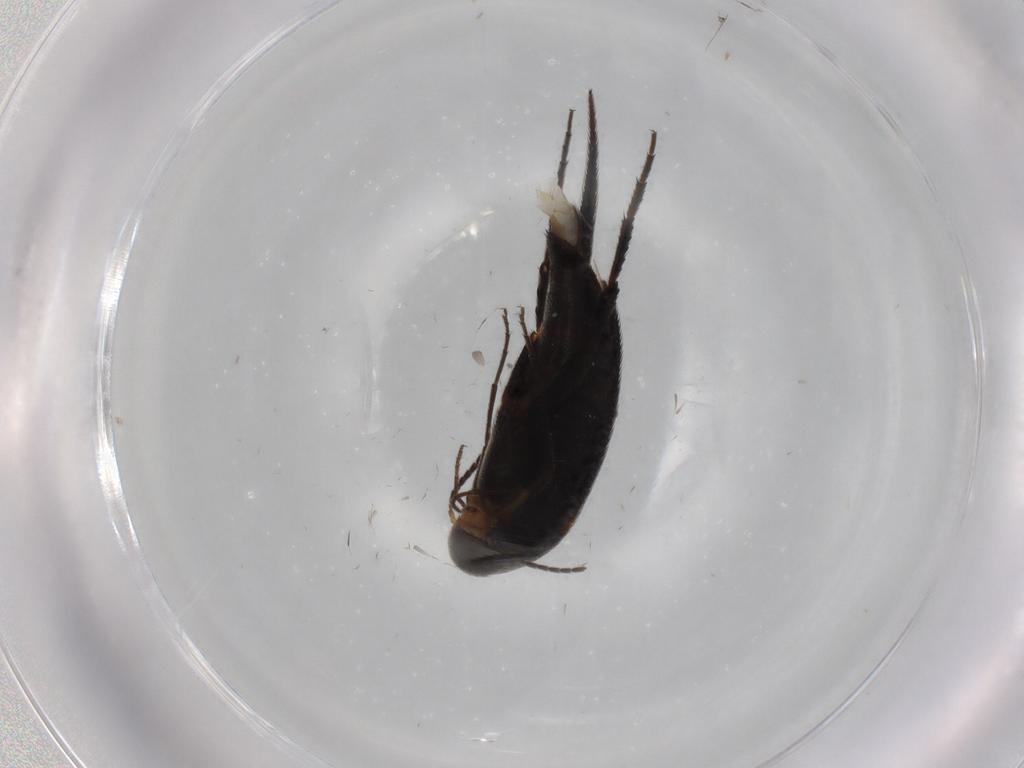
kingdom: Animalia
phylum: Arthropoda
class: Insecta
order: Coleoptera
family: Mordellidae
